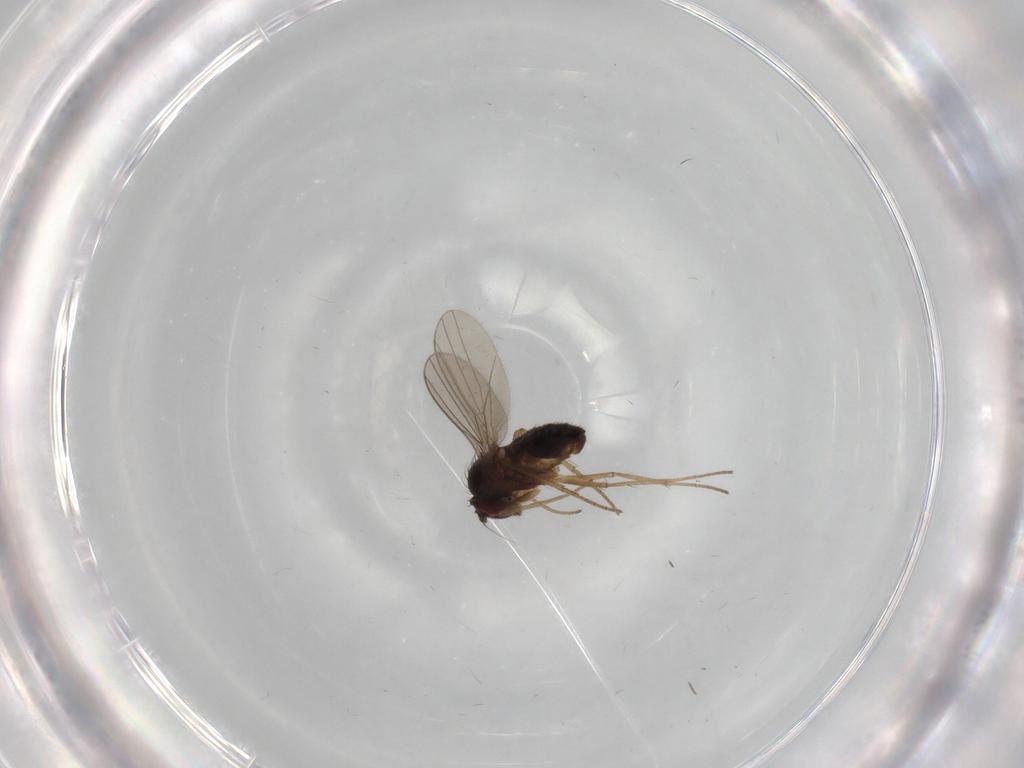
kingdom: Animalia
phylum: Arthropoda
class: Insecta
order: Diptera
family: Dolichopodidae
